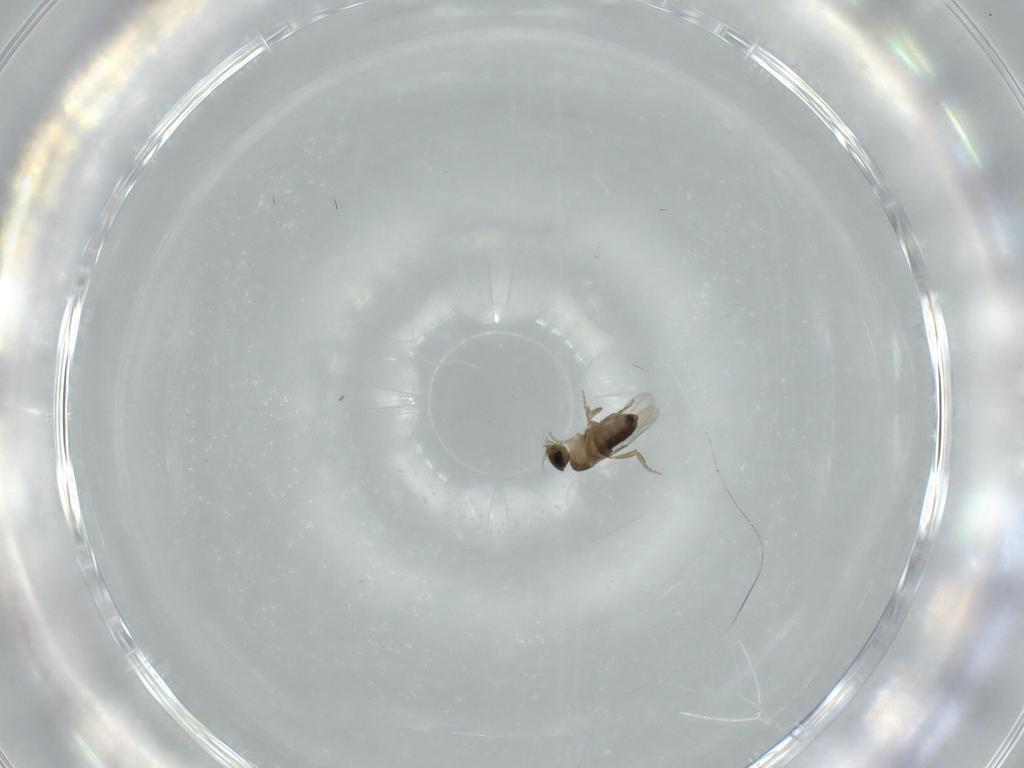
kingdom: Animalia
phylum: Arthropoda
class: Insecta
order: Diptera
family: Phoridae
